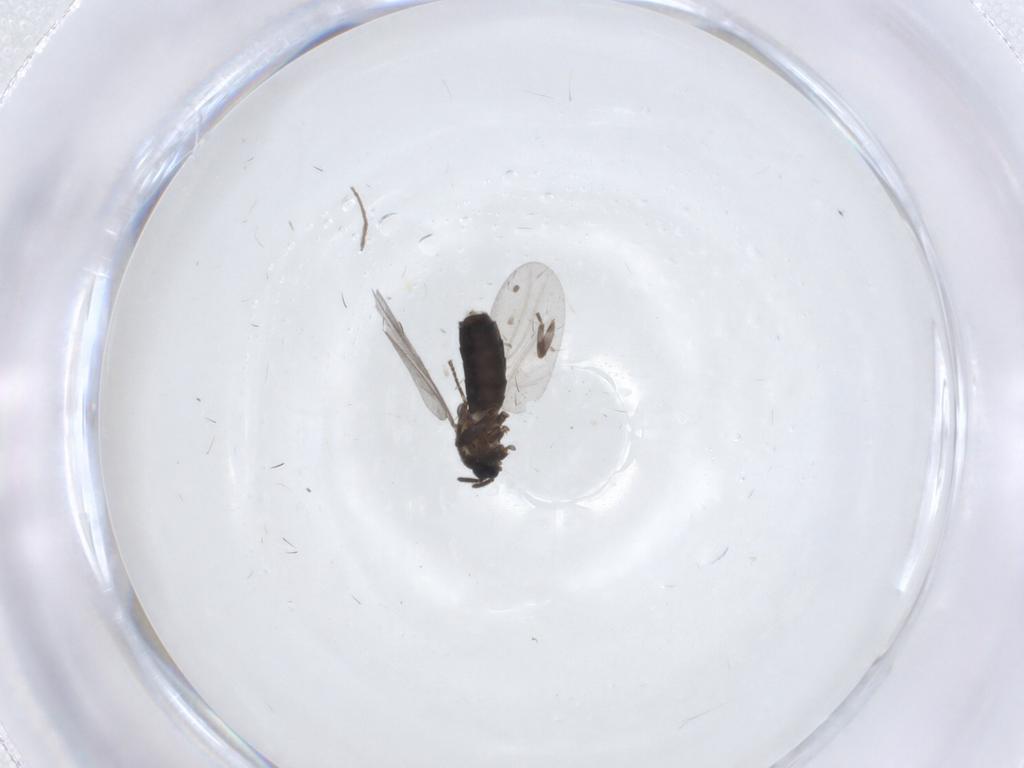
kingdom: Animalia
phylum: Arthropoda
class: Insecta
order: Diptera
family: Scatopsidae
